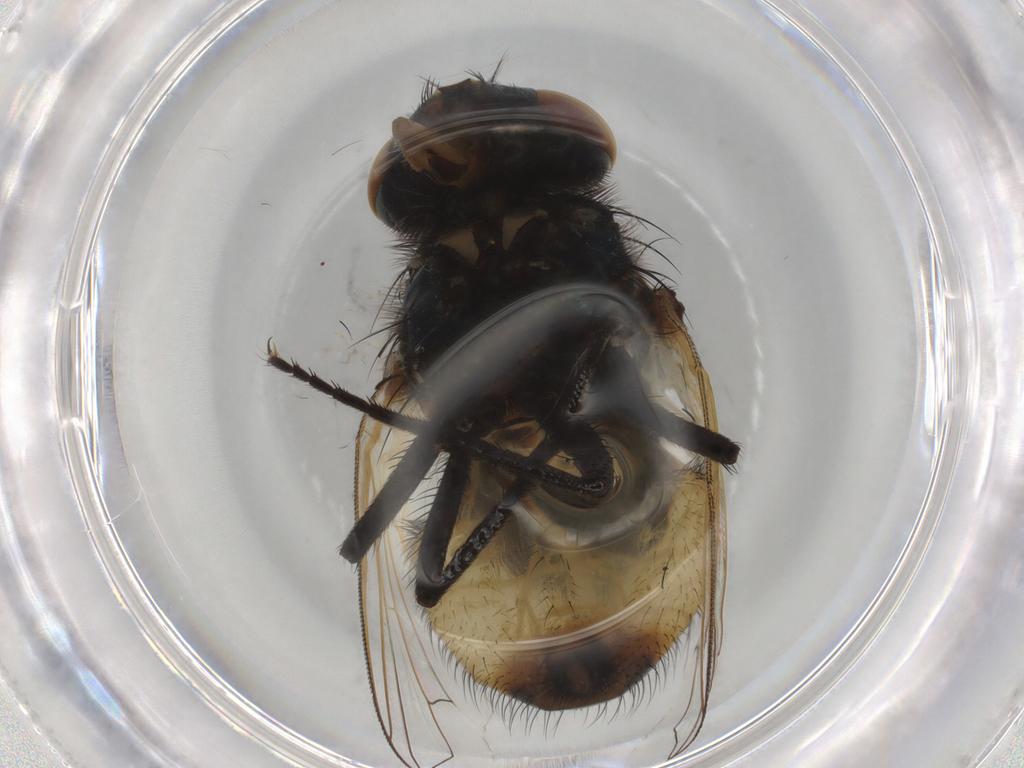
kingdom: Animalia
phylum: Arthropoda
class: Insecta
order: Diptera
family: Muscidae
